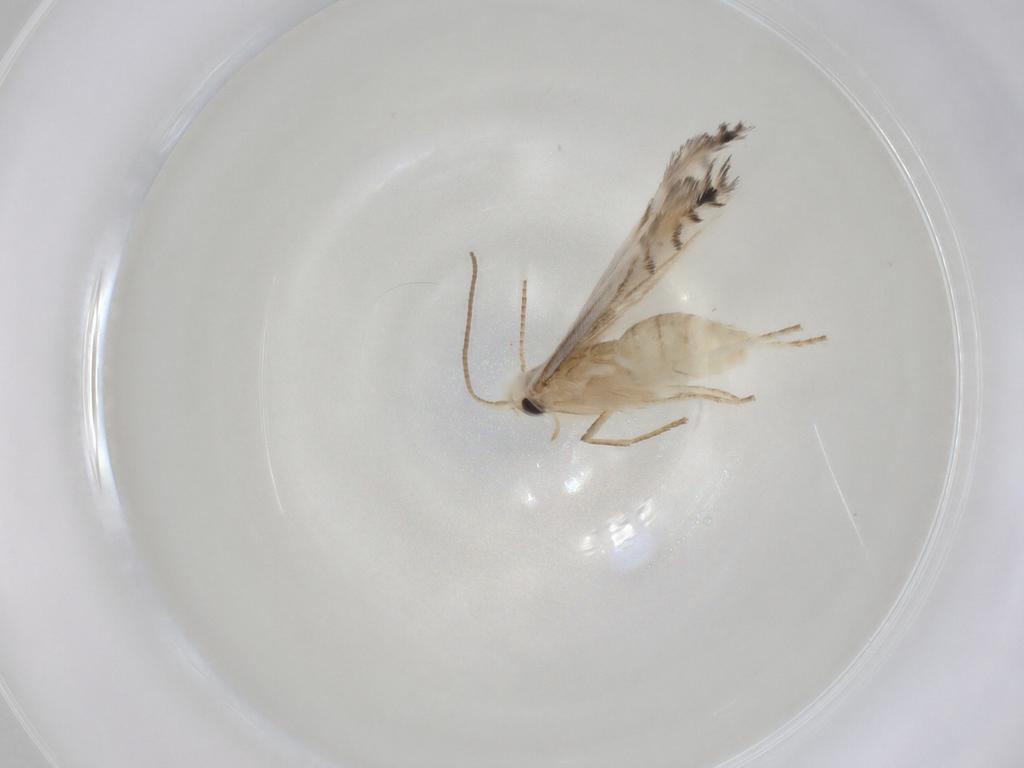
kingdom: Animalia
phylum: Arthropoda
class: Insecta
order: Lepidoptera
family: Gracillariidae
